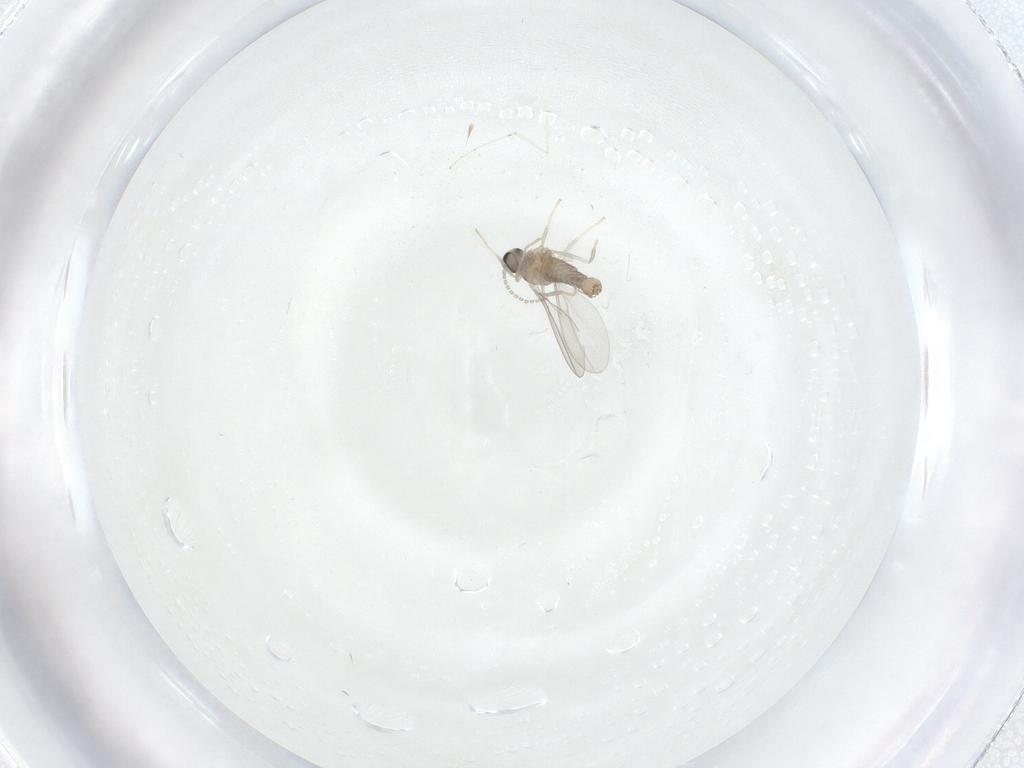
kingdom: Animalia
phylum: Arthropoda
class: Insecta
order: Diptera
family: Cecidomyiidae
